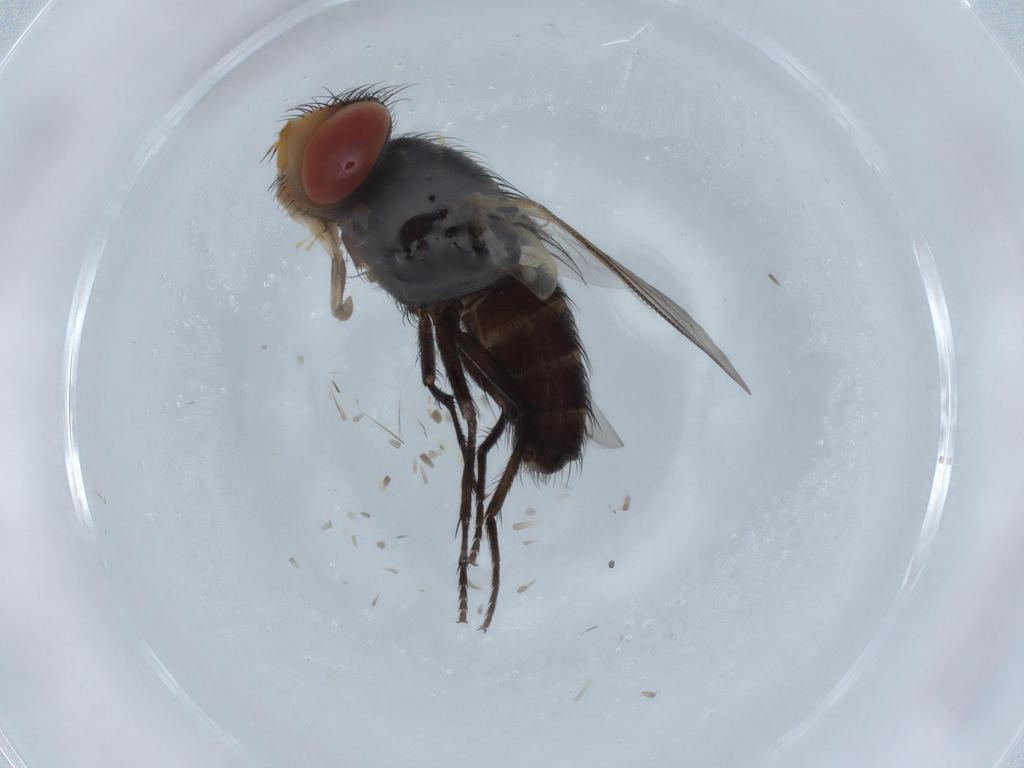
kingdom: Animalia
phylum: Arthropoda
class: Insecta
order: Diptera
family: Sarcophagidae
